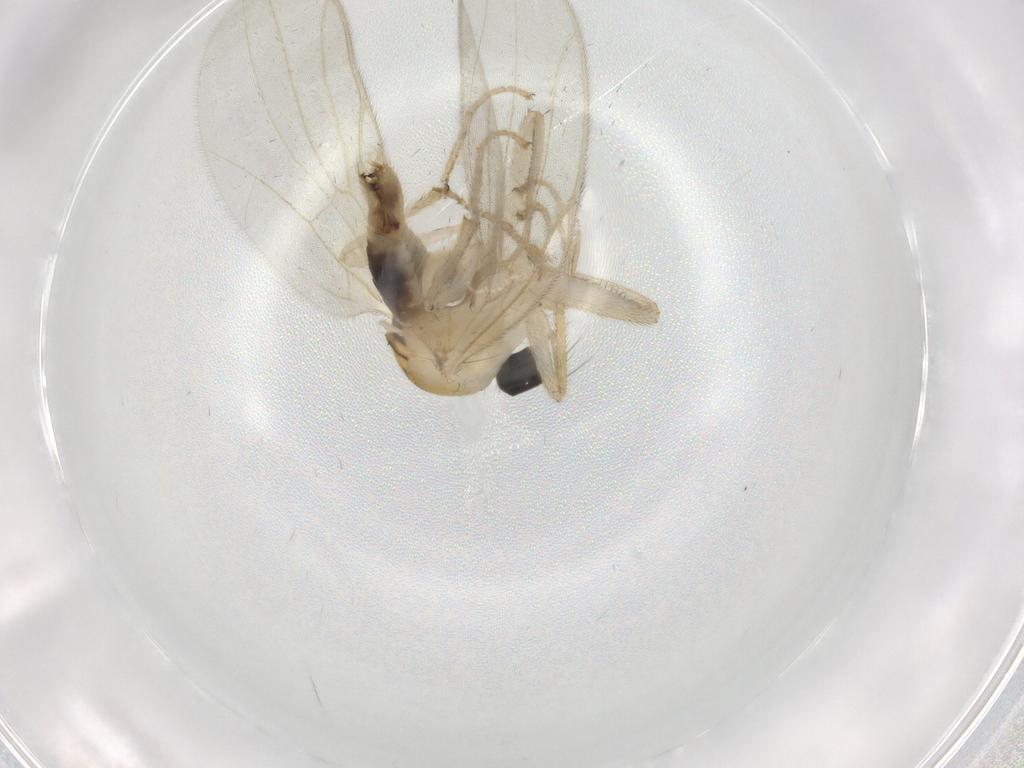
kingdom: Animalia
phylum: Arthropoda
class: Insecta
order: Diptera
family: Hybotidae
